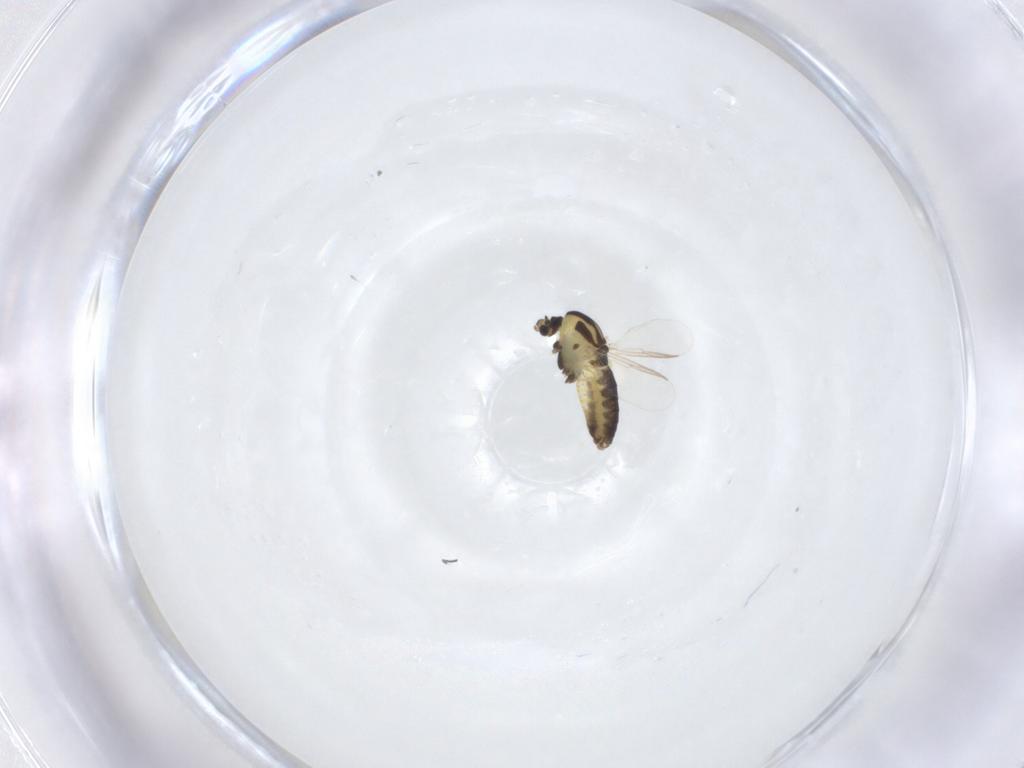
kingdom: Animalia
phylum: Arthropoda
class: Insecta
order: Diptera
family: Chironomidae
